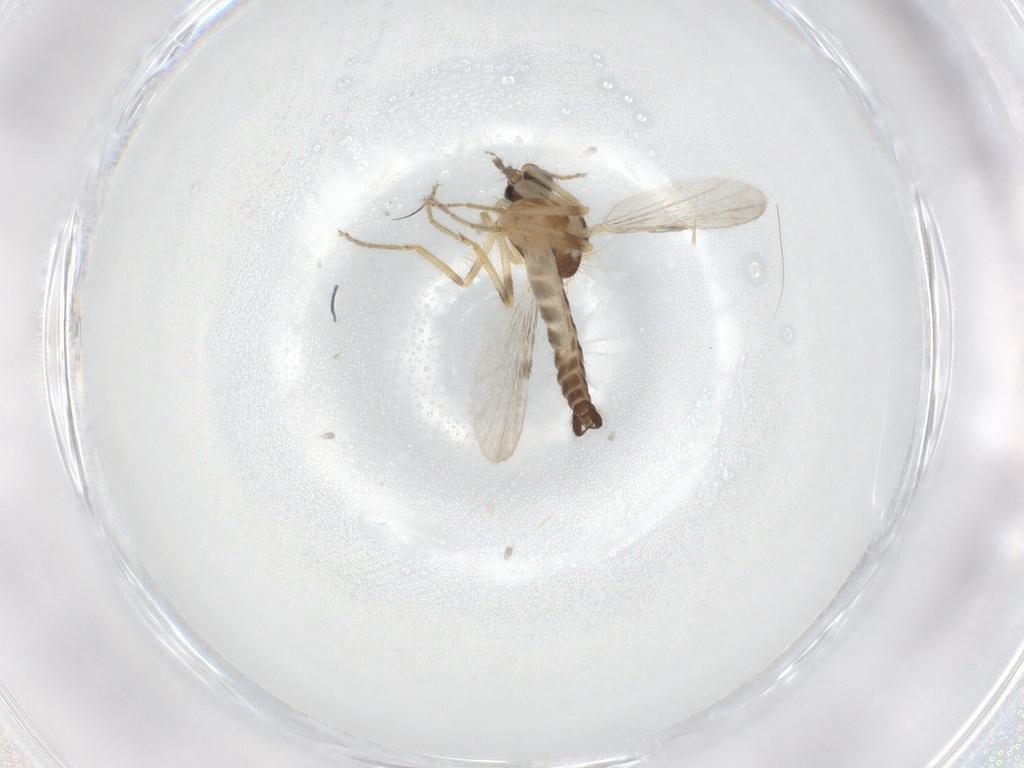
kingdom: Animalia
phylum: Arthropoda
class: Insecta
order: Diptera
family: Ceratopogonidae
